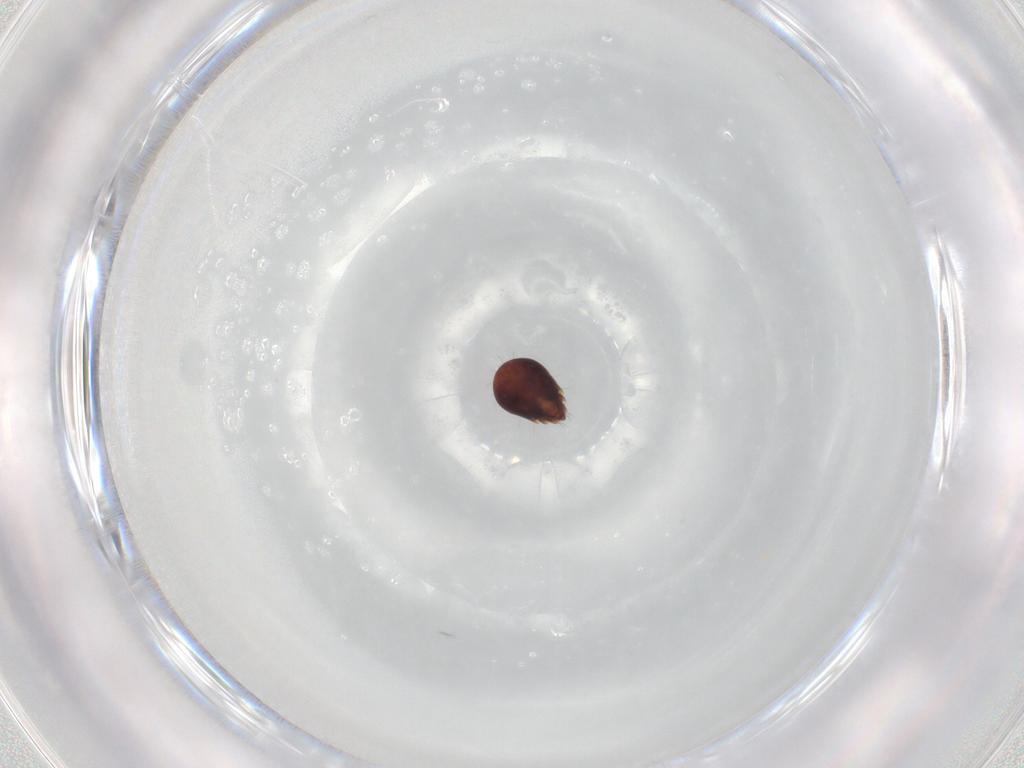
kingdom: Animalia
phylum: Arthropoda
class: Arachnida
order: Sarcoptiformes
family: Humerobatidae
